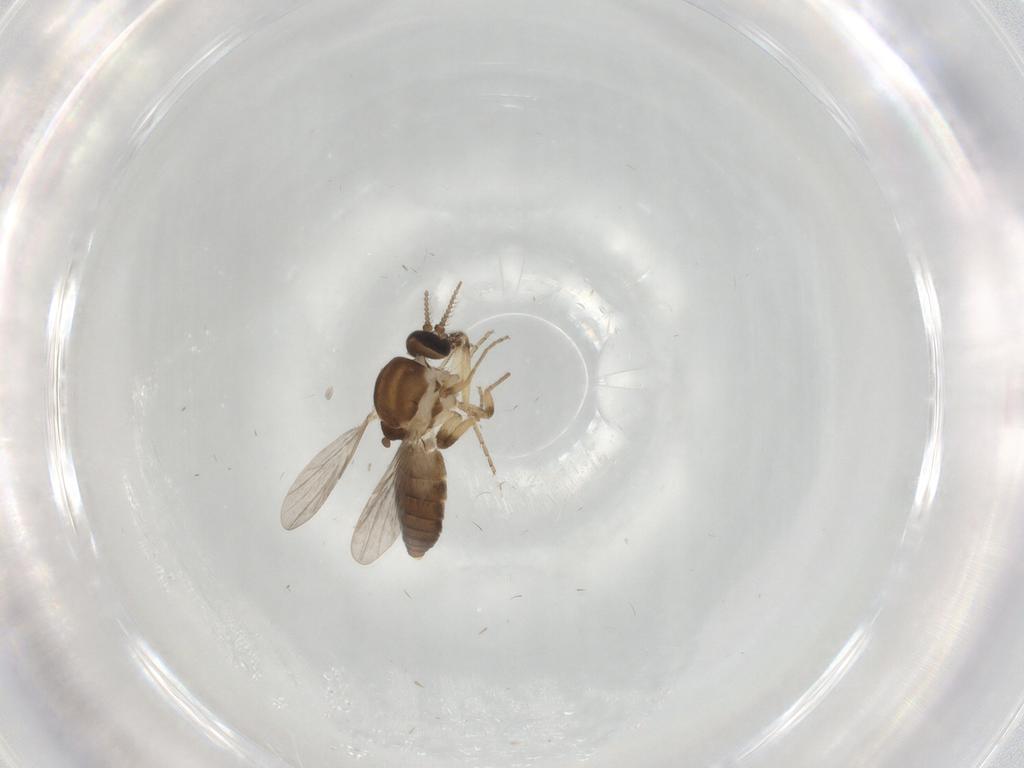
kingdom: Animalia
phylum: Arthropoda
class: Insecta
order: Diptera
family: Ceratopogonidae
